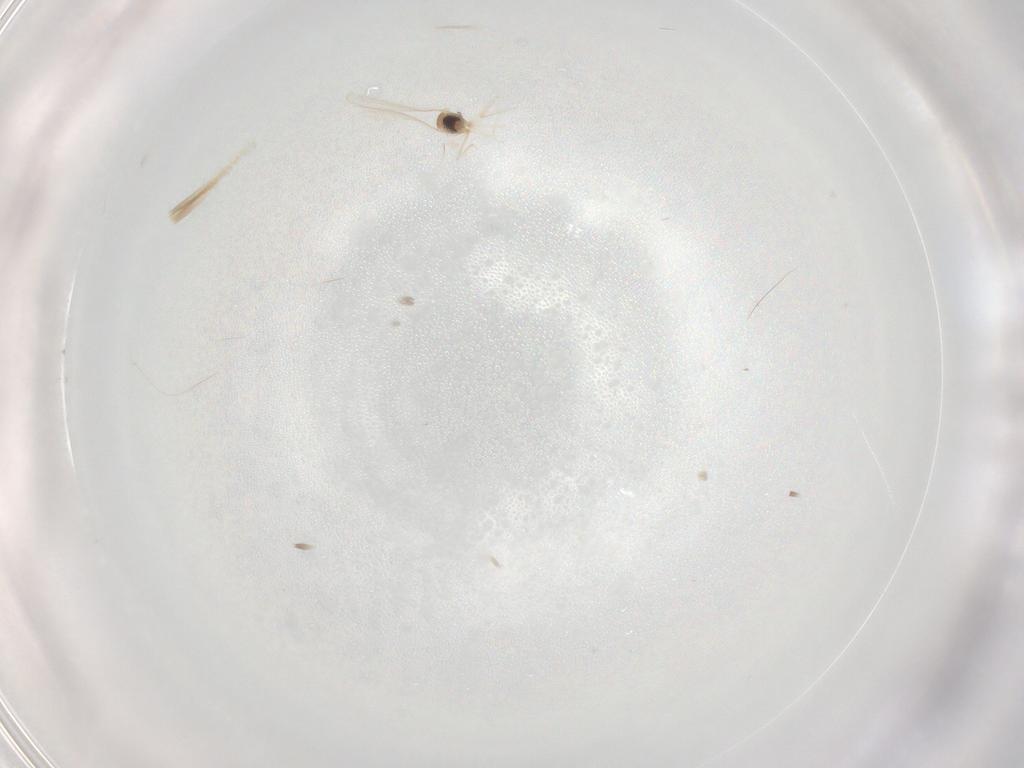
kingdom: Animalia
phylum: Arthropoda
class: Insecta
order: Diptera
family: Cecidomyiidae
